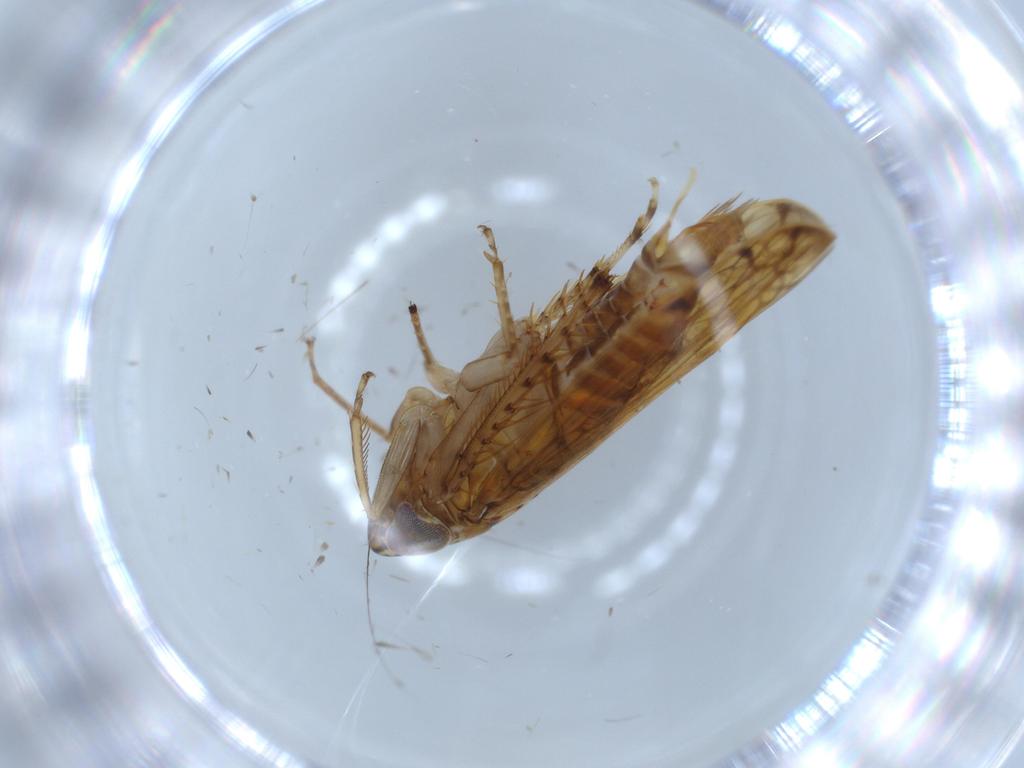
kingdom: Animalia
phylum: Arthropoda
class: Insecta
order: Hemiptera
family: Cicadellidae
